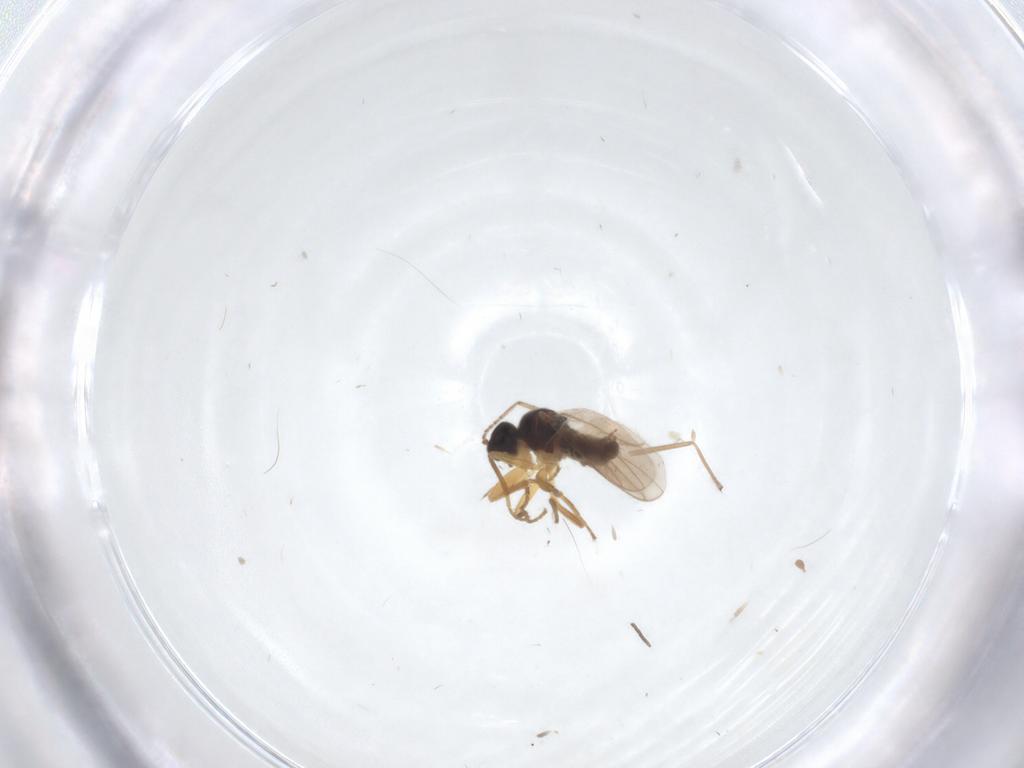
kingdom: Animalia
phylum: Arthropoda
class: Insecta
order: Diptera
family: Hybotidae
